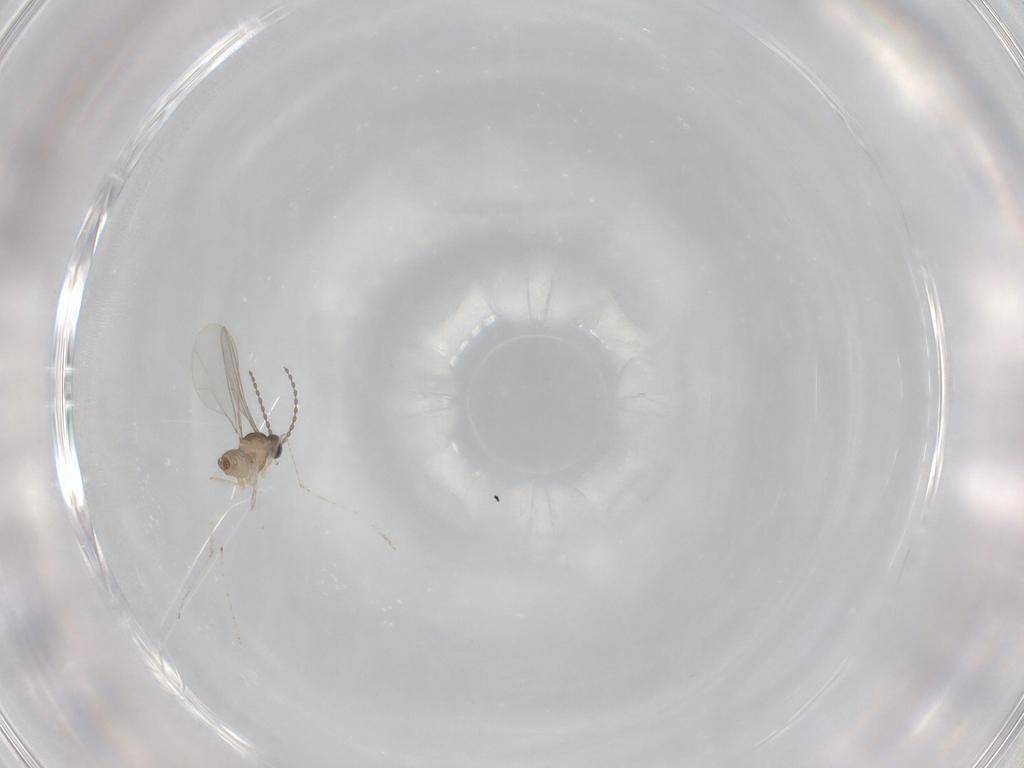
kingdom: Animalia
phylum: Arthropoda
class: Insecta
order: Diptera
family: Cecidomyiidae
